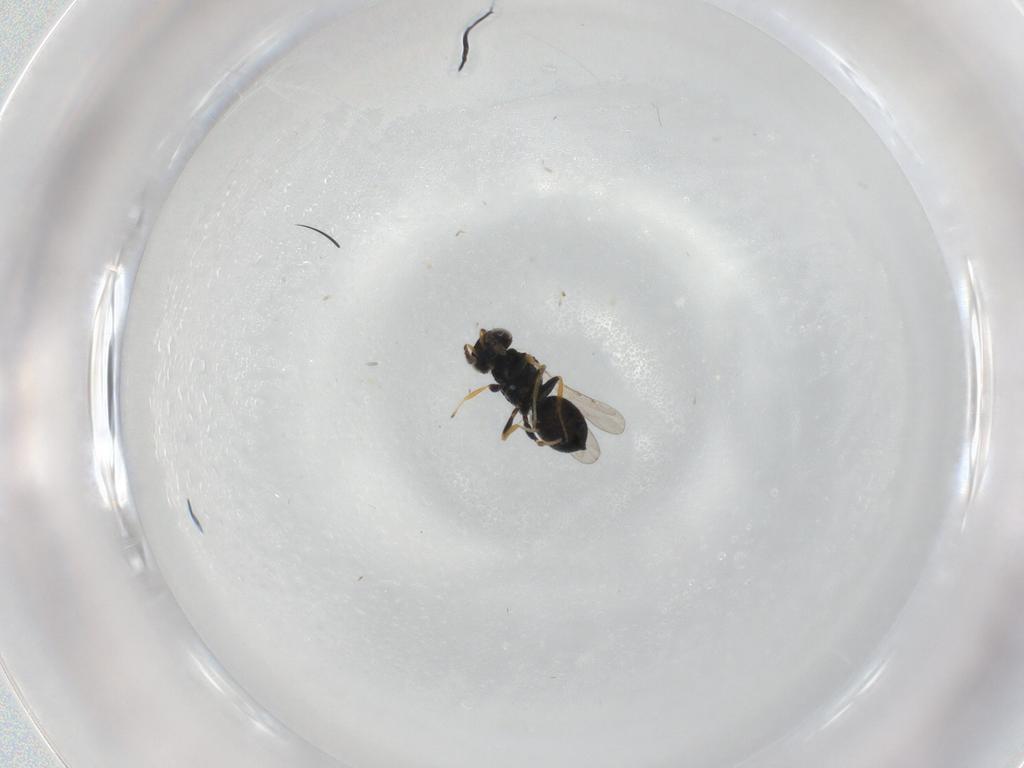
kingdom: Animalia
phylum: Arthropoda
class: Insecta
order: Hymenoptera
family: Eulophidae
